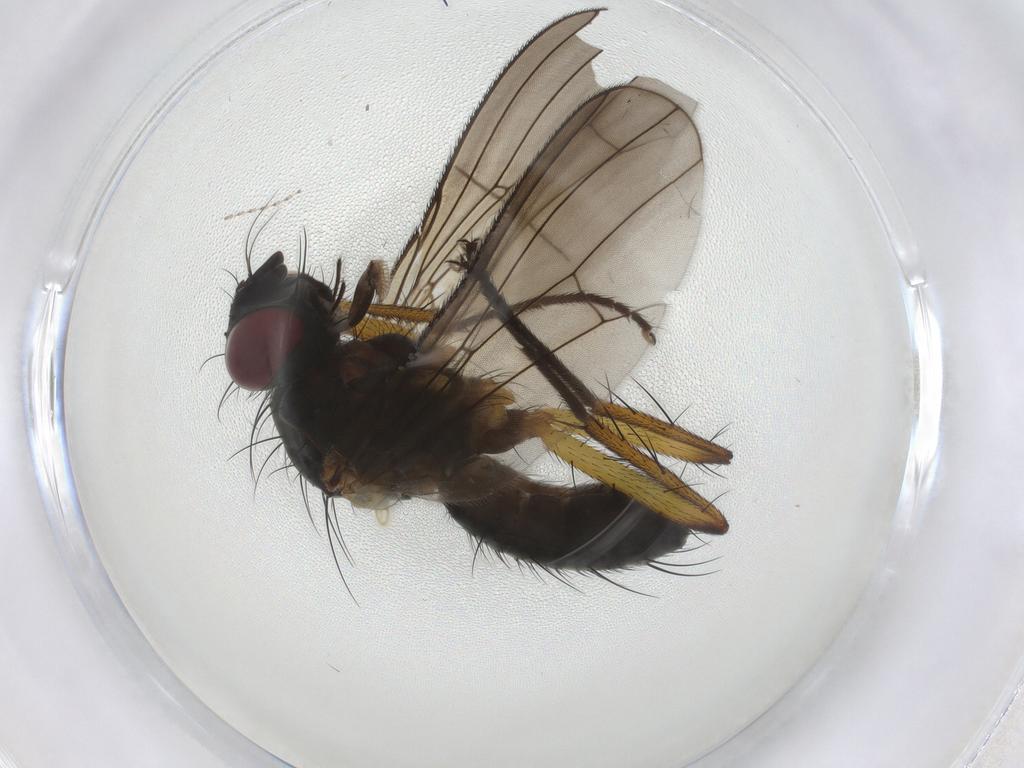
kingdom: Animalia
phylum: Arthropoda
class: Insecta
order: Diptera
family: Muscidae
